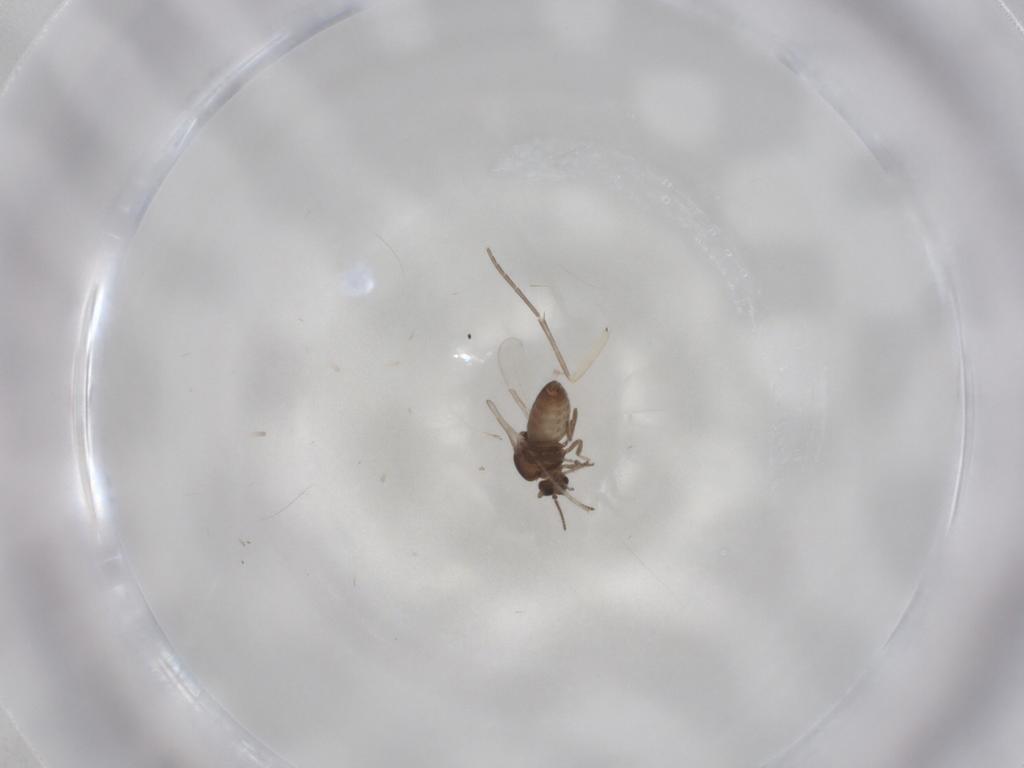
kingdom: Animalia
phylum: Arthropoda
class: Insecta
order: Diptera
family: Ceratopogonidae
